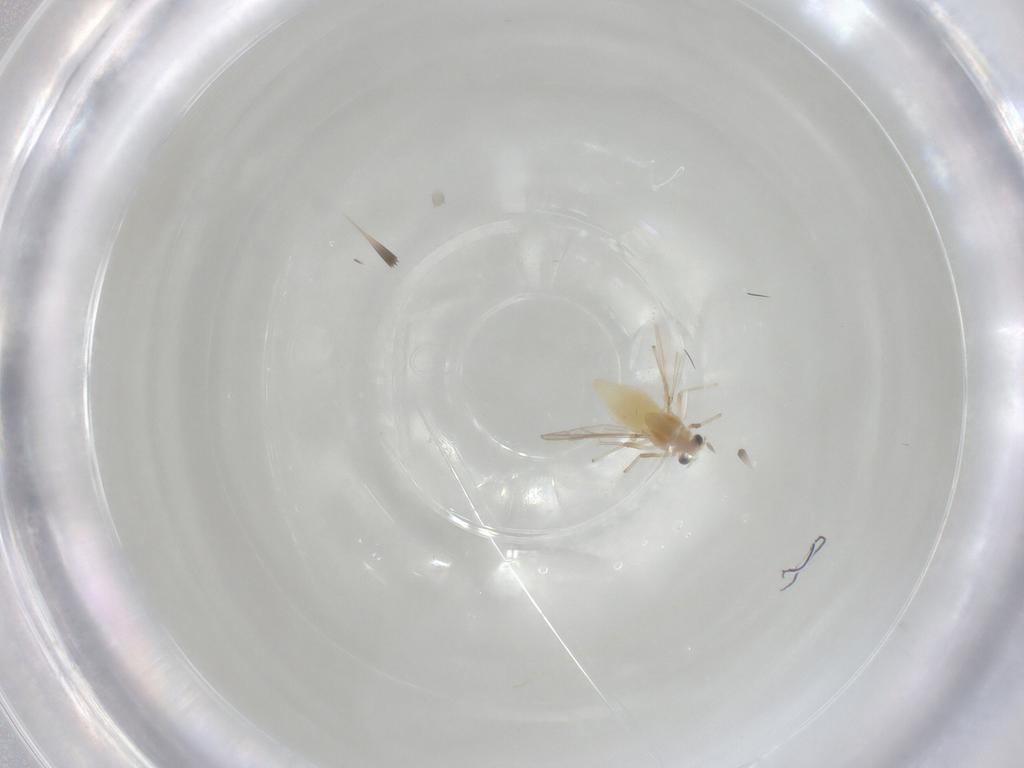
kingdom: Animalia
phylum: Arthropoda
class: Insecta
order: Diptera
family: Chironomidae
